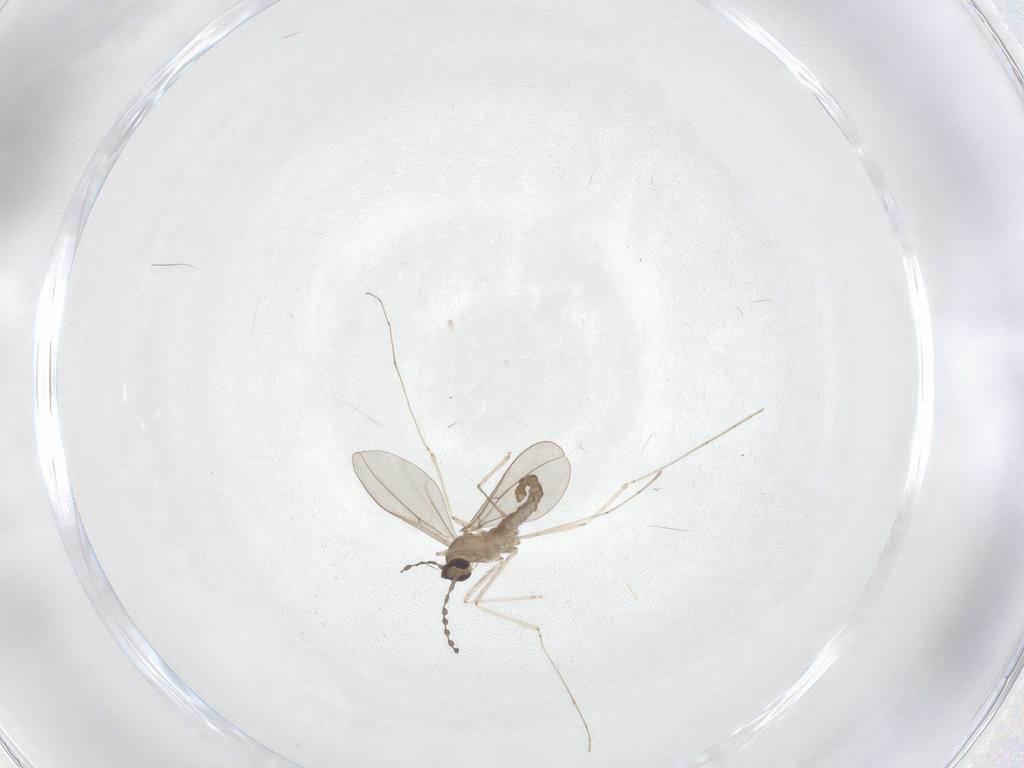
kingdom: Animalia
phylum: Arthropoda
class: Insecta
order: Diptera
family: Cecidomyiidae
